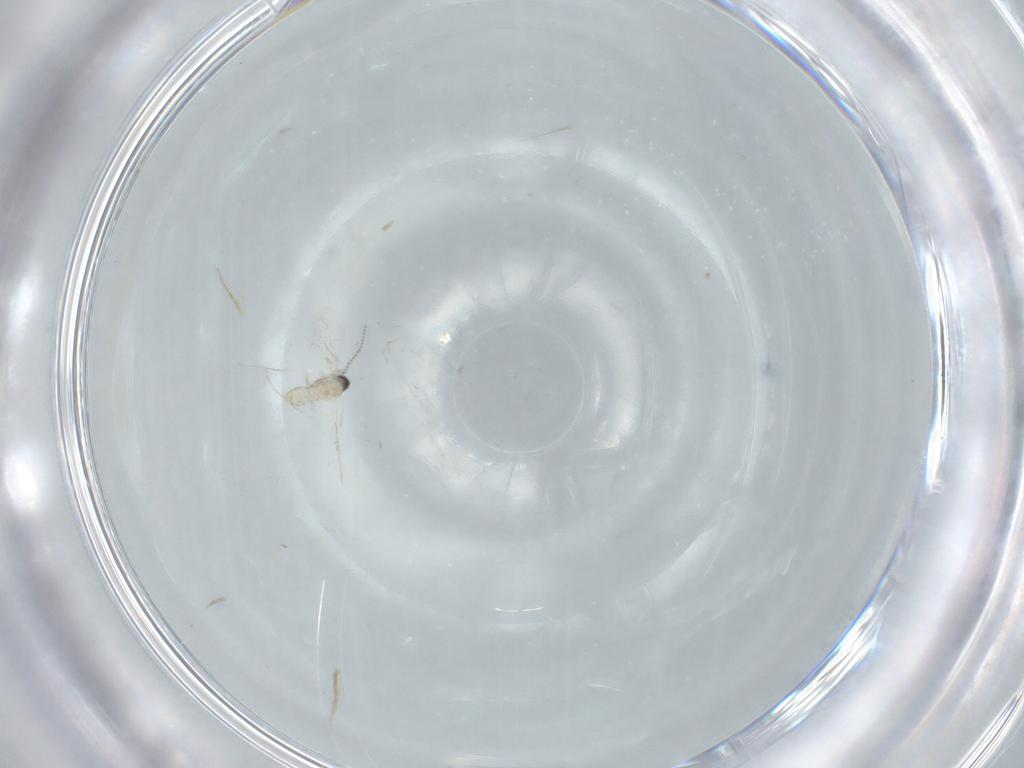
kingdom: Animalia
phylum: Arthropoda
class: Insecta
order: Diptera
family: Cecidomyiidae
